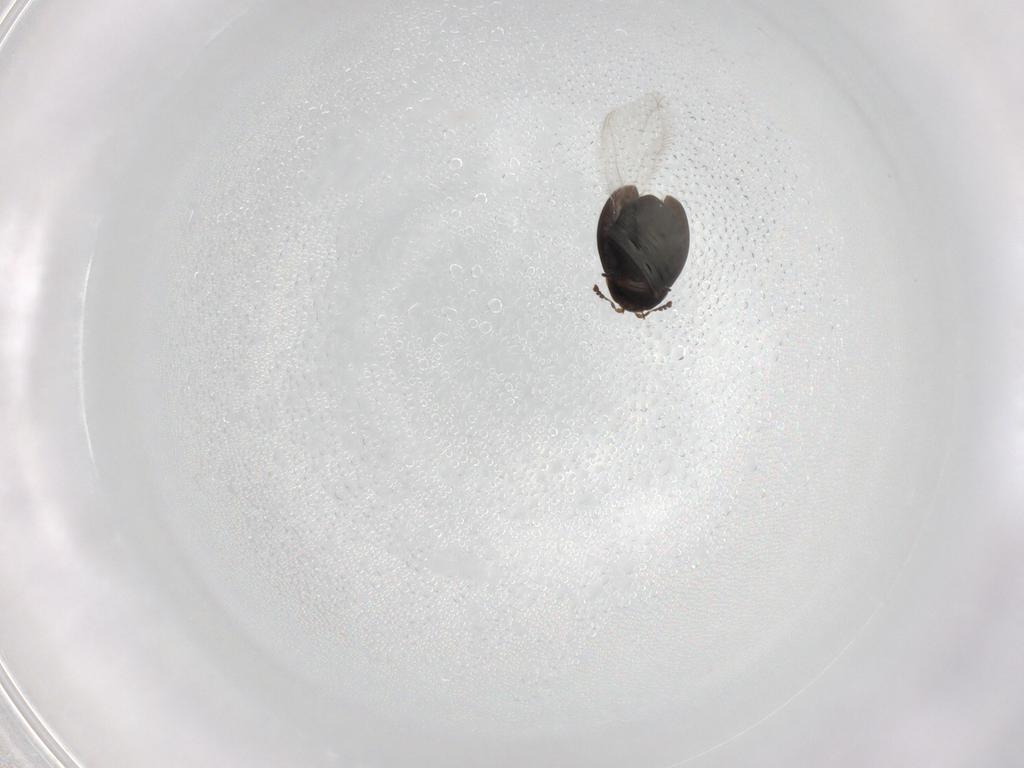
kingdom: Animalia
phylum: Arthropoda
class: Insecta
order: Coleoptera
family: Corylophidae
